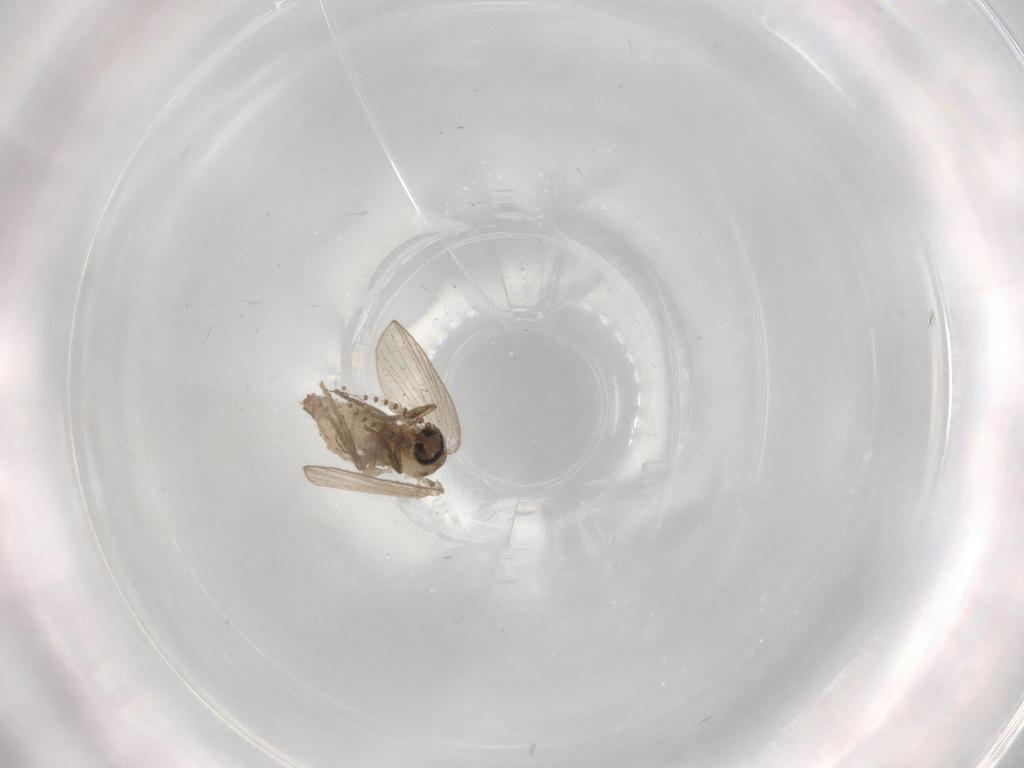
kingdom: Animalia
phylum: Arthropoda
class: Insecta
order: Diptera
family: Psychodidae
